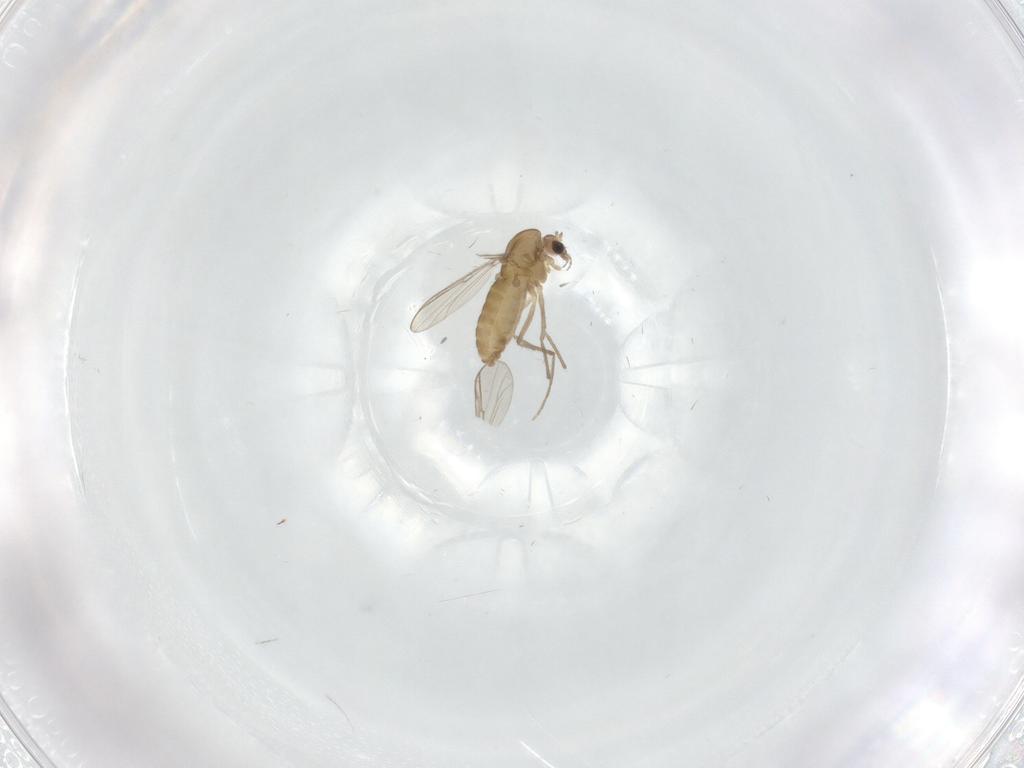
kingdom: Animalia
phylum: Arthropoda
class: Insecta
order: Diptera
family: Chironomidae
